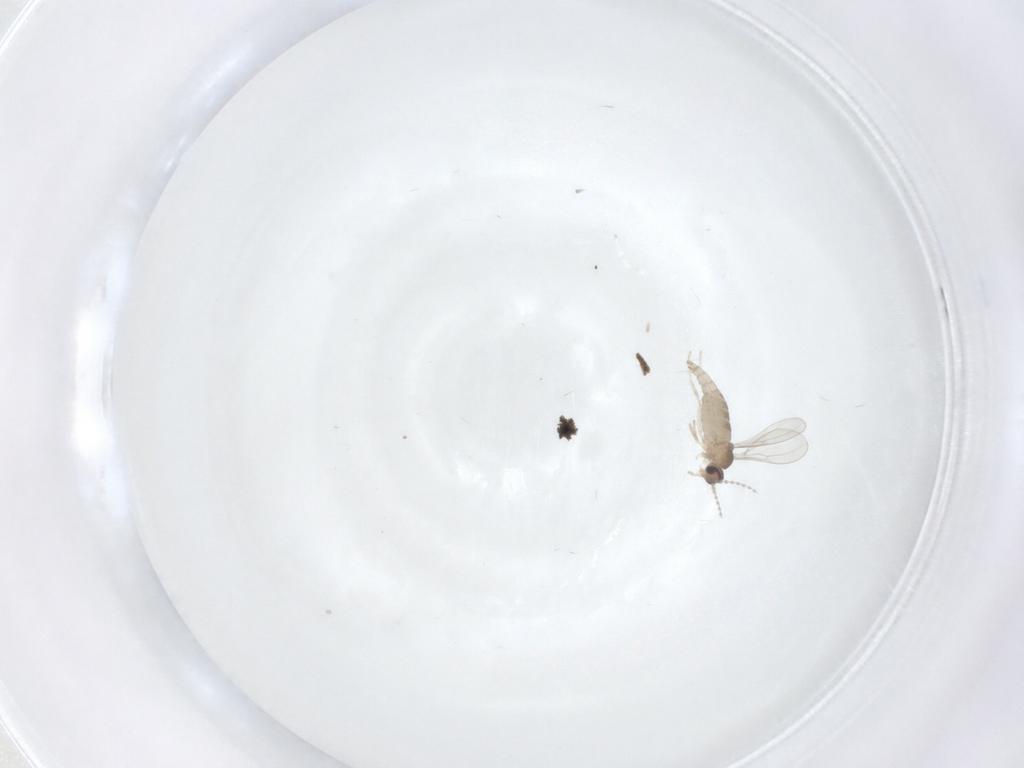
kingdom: Animalia
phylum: Arthropoda
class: Insecta
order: Diptera
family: Cecidomyiidae
